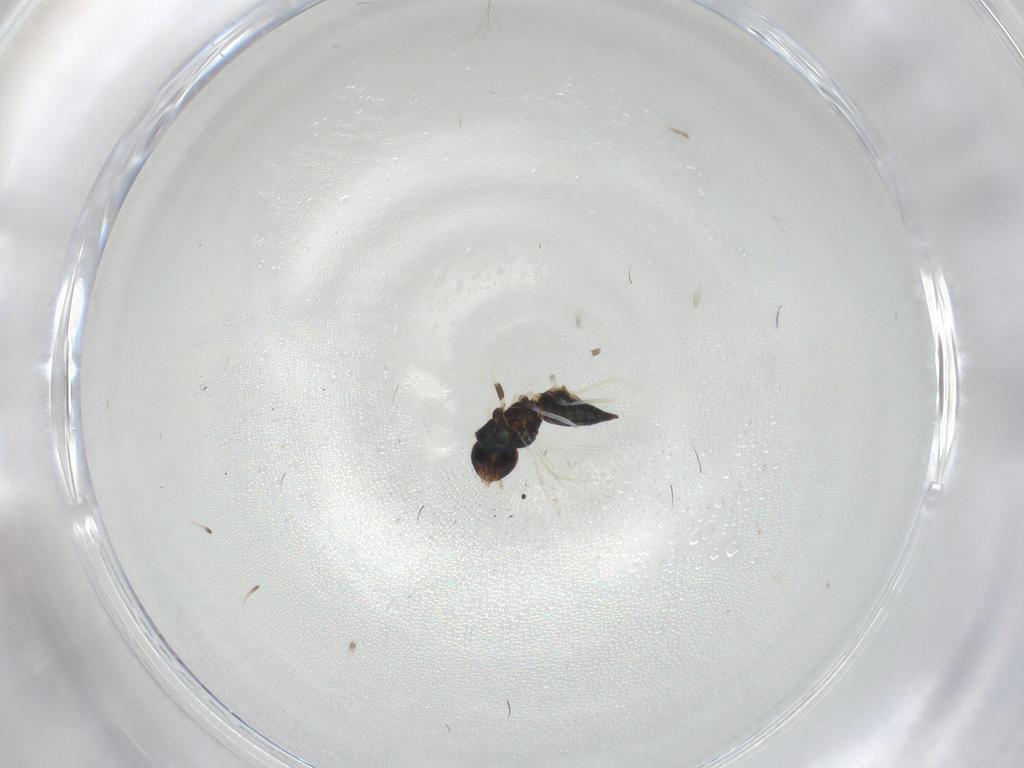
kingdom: Animalia
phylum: Arthropoda
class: Insecta
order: Hymenoptera
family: Eulophidae
